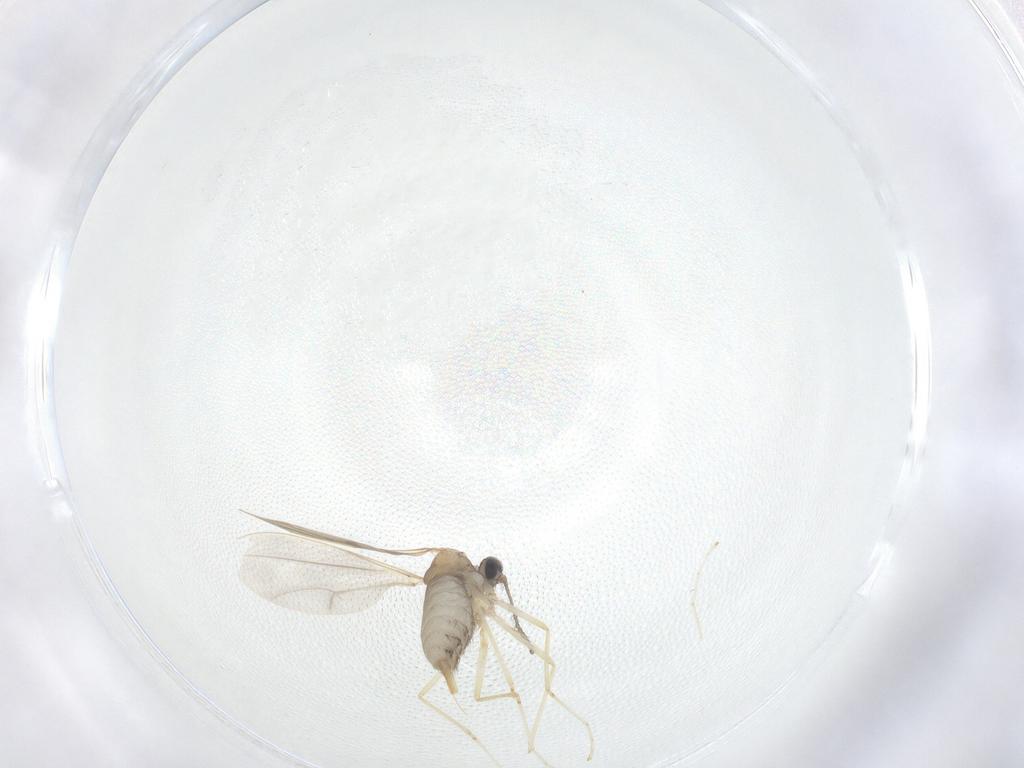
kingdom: Animalia
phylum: Arthropoda
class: Insecta
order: Diptera
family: Cecidomyiidae
